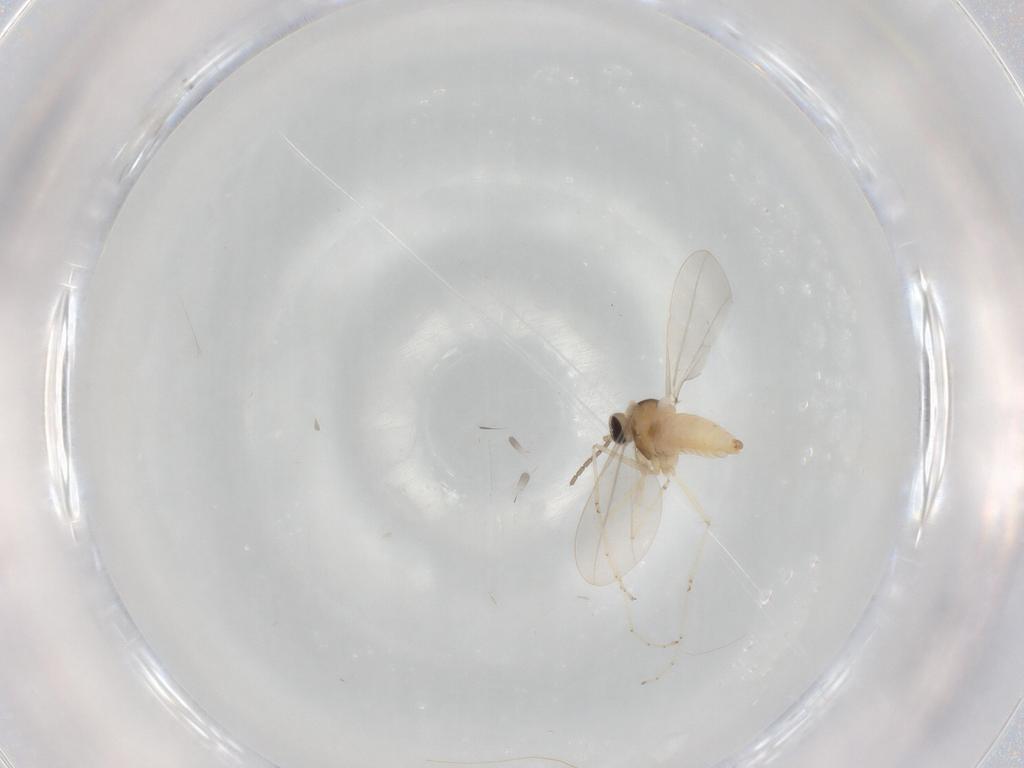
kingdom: Animalia
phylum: Arthropoda
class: Insecta
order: Diptera
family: Cecidomyiidae
